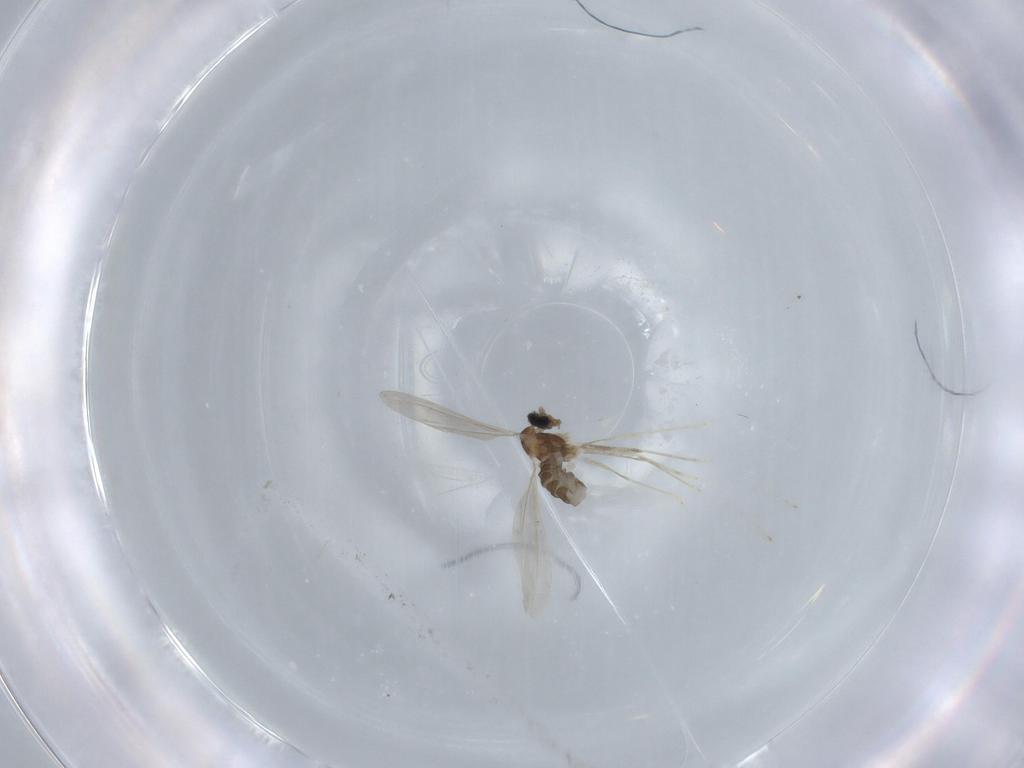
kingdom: Animalia
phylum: Arthropoda
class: Insecta
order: Diptera
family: Cecidomyiidae
